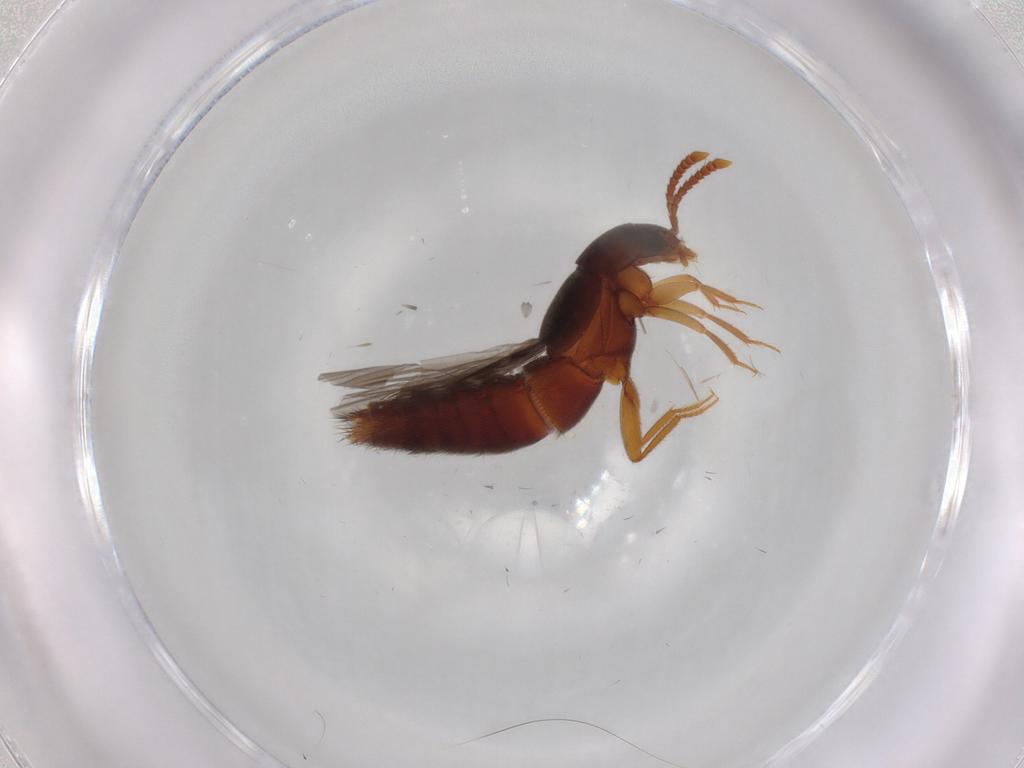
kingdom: Animalia
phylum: Arthropoda
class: Insecta
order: Coleoptera
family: Staphylinidae
